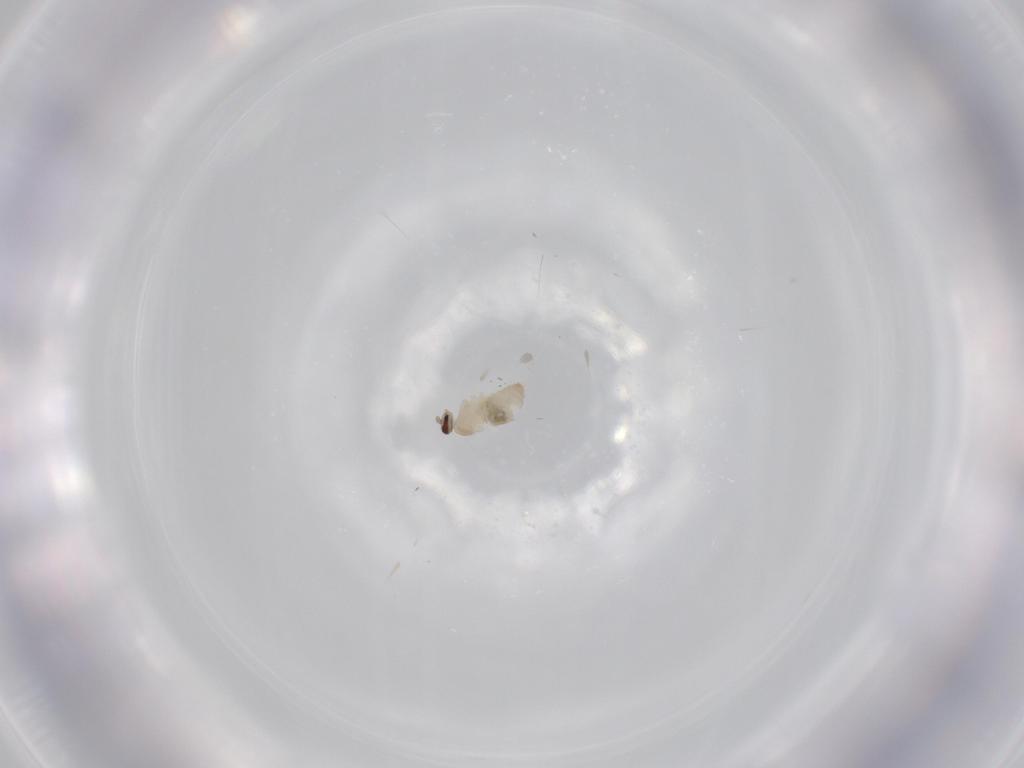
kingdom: Animalia
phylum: Arthropoda
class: Insecta
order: Diptera
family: Cecidomyiidae
